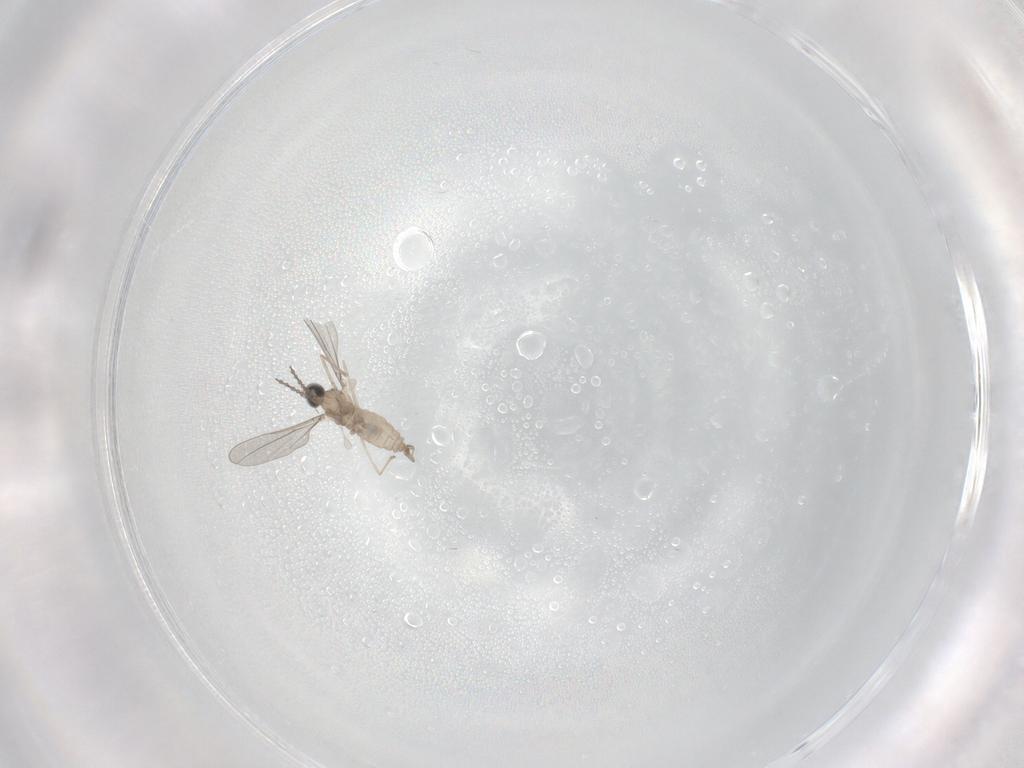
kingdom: Animalia
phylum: Arthropoda
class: Insecta
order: Diptera
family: Cecidomyiidae
